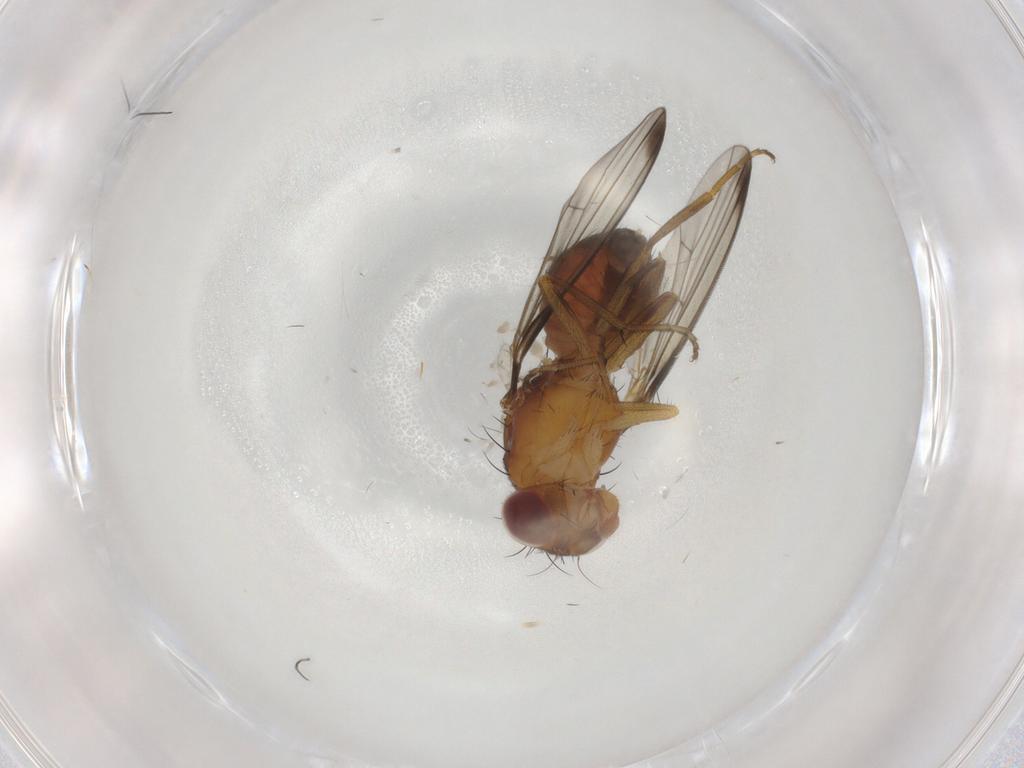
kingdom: Animalia
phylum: Arthropoda
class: Insecta
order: Diptera
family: Piophilidae
